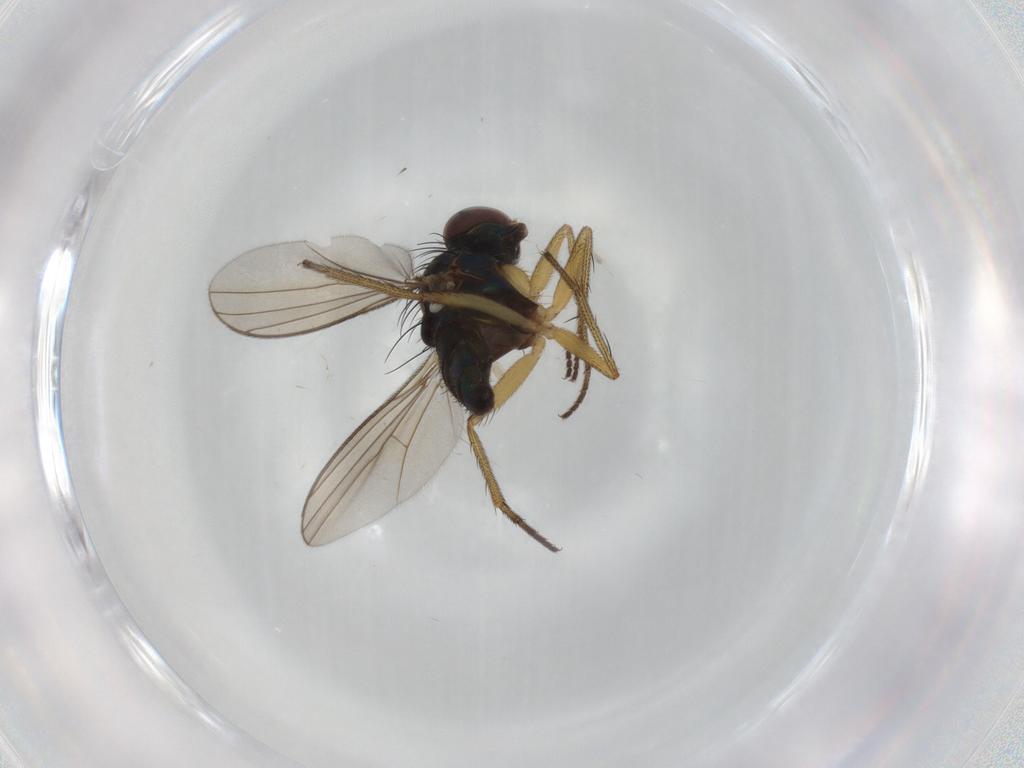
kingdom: Animalia
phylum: Arthropoda
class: Insecta
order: Diptera
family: Dolichopodidae
